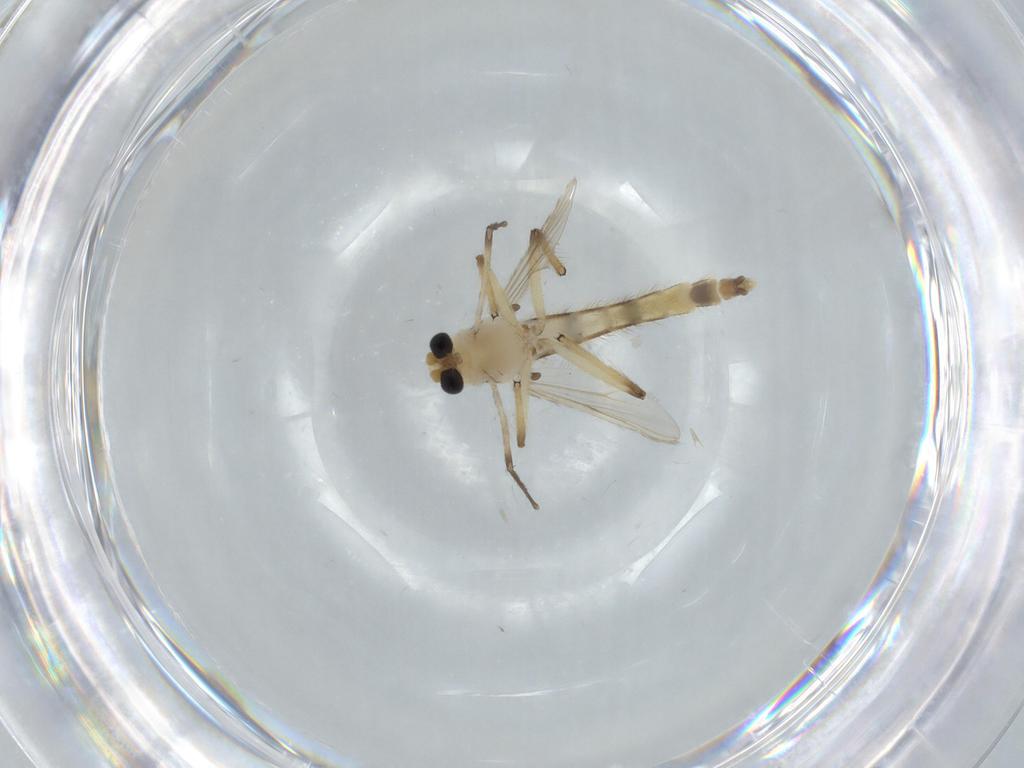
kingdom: Animalia
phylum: Arthropoda
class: Insecta
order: Diptera
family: Chironomidae
